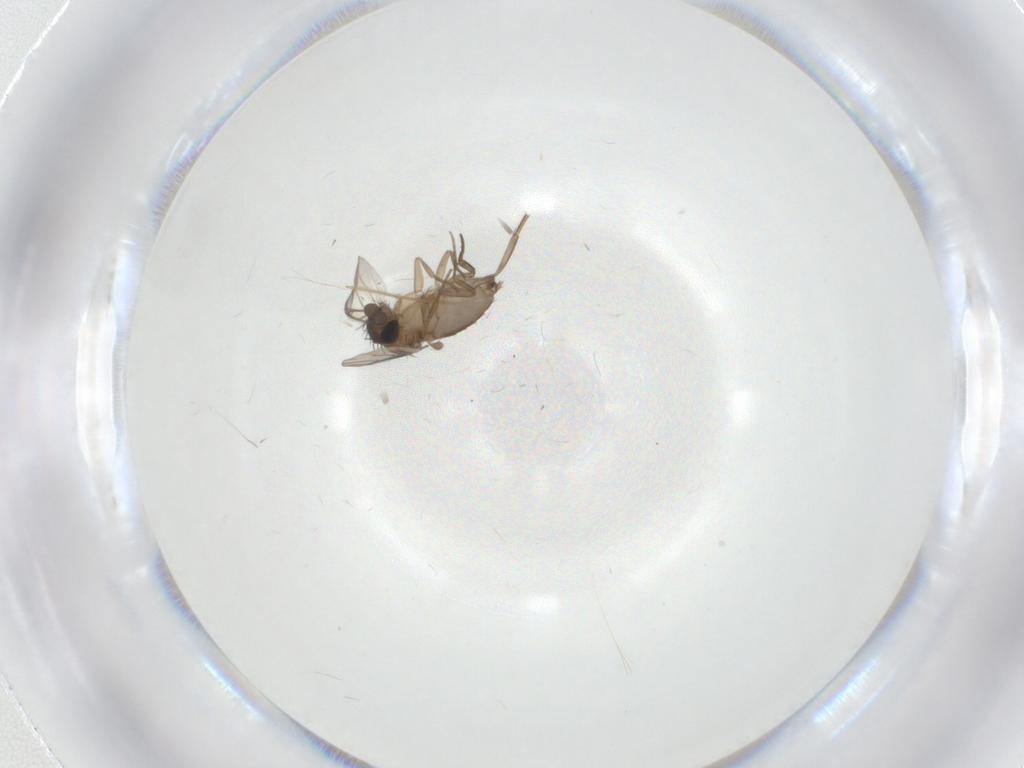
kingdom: Animalia
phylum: Arthropoda
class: Insecta
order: Diptera
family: Phoridae
